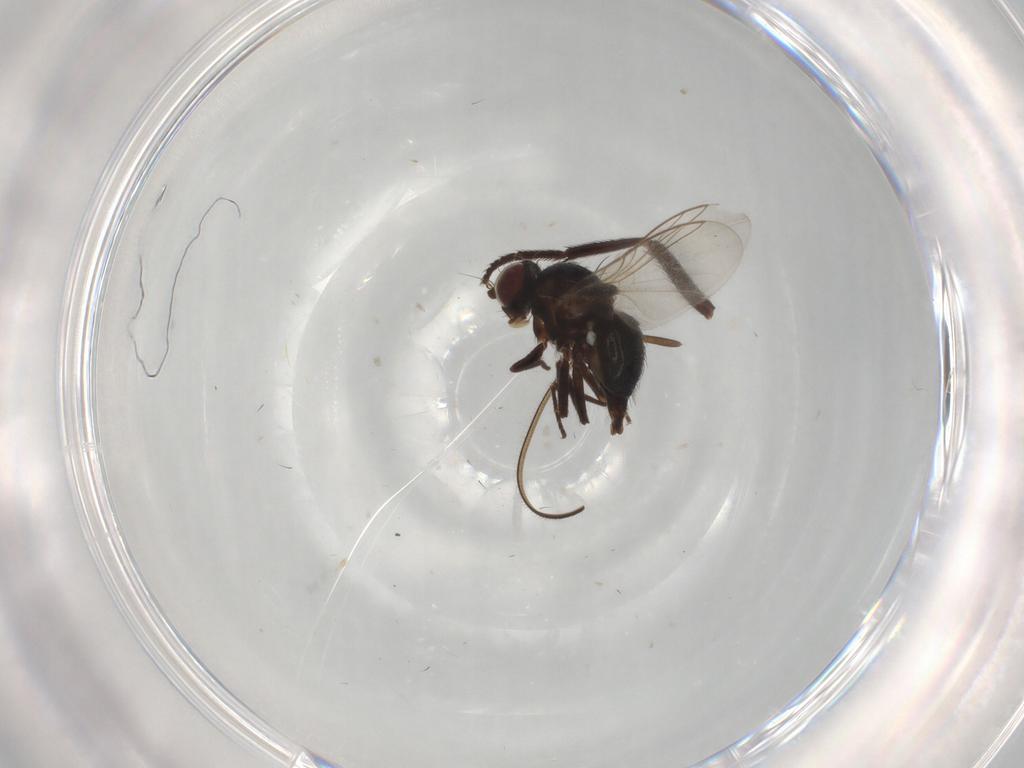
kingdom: Animalia
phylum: Arthropoda
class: Insecta
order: Diptera
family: Lonchaeidae
